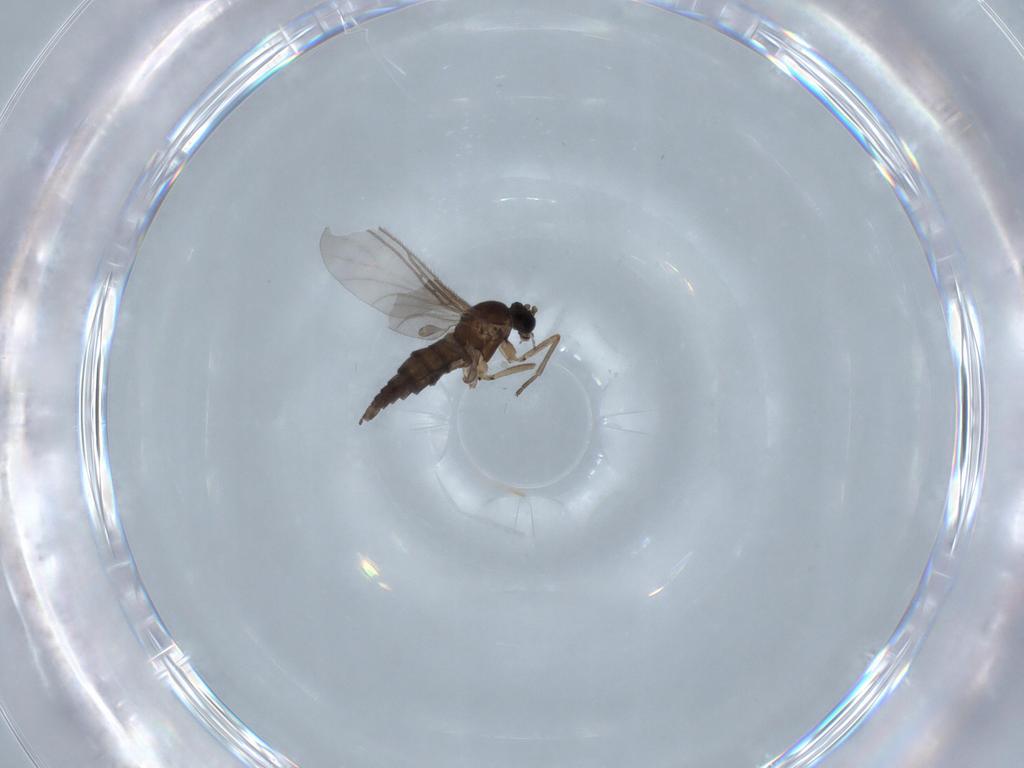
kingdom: Animalia
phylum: Arthropoda
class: Insecta
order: Diptera
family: Sciaridae
